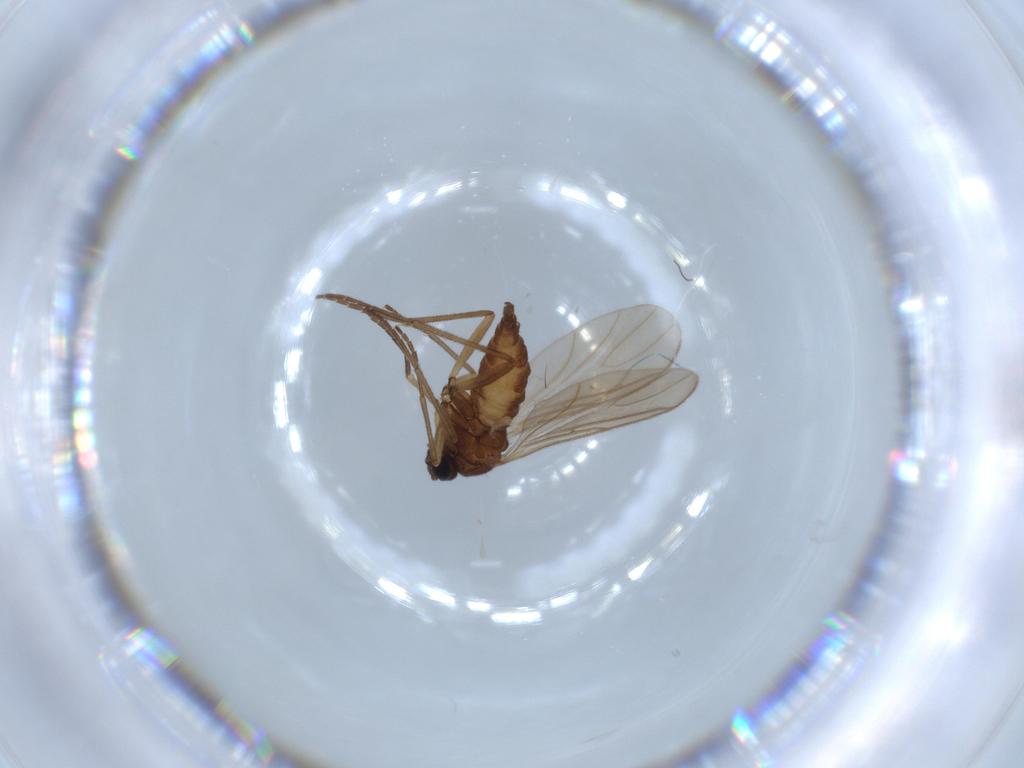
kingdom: Animalia
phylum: Arthropoda
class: Insecta
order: Diptera
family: Sciaridae
